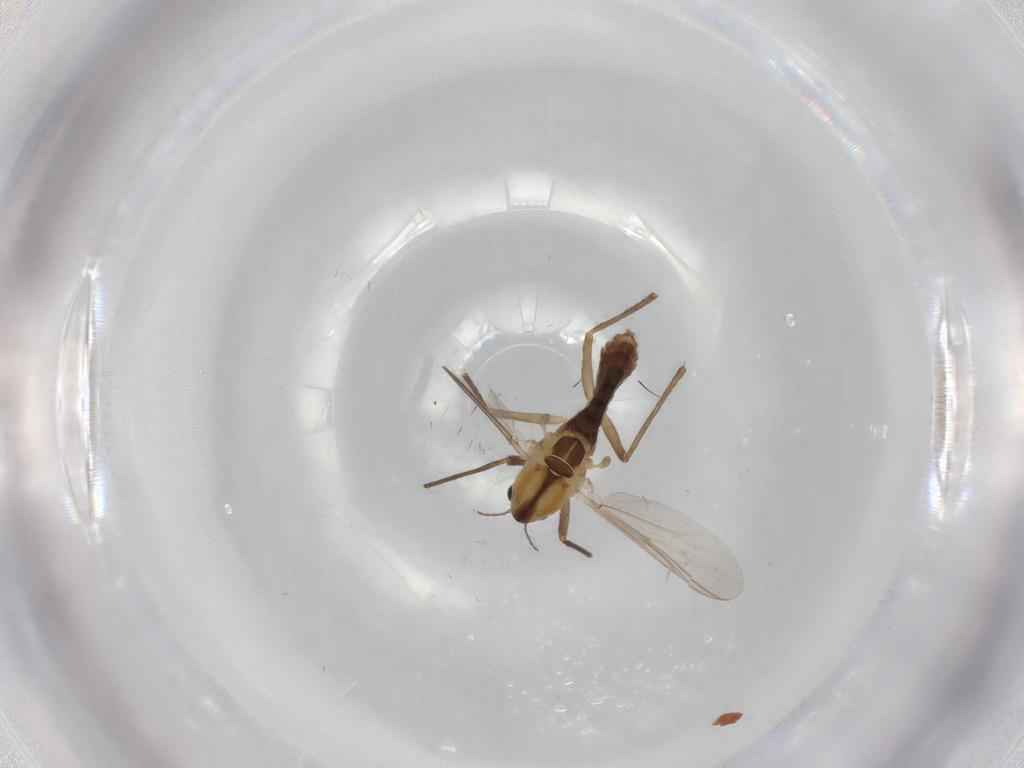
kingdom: Animalia
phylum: Arthropoda
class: Insecta
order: Diptera
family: Chironomidae
